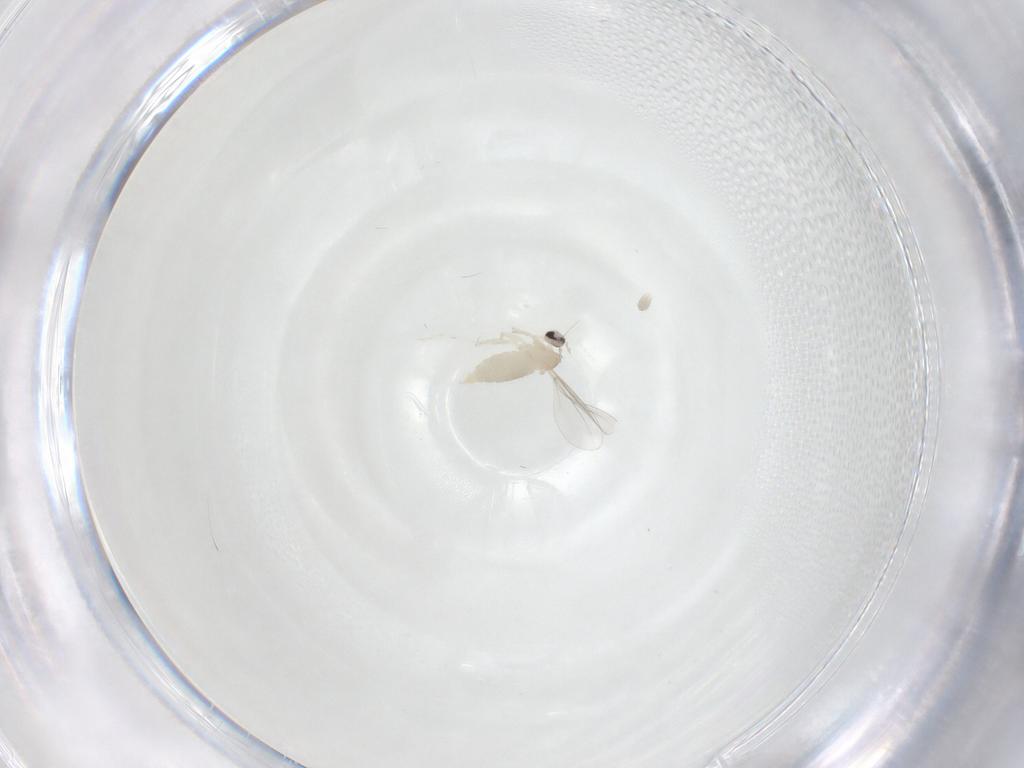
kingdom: Animalia
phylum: Arthropoda
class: Insecta
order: Diptera
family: Cecidomyiidae
